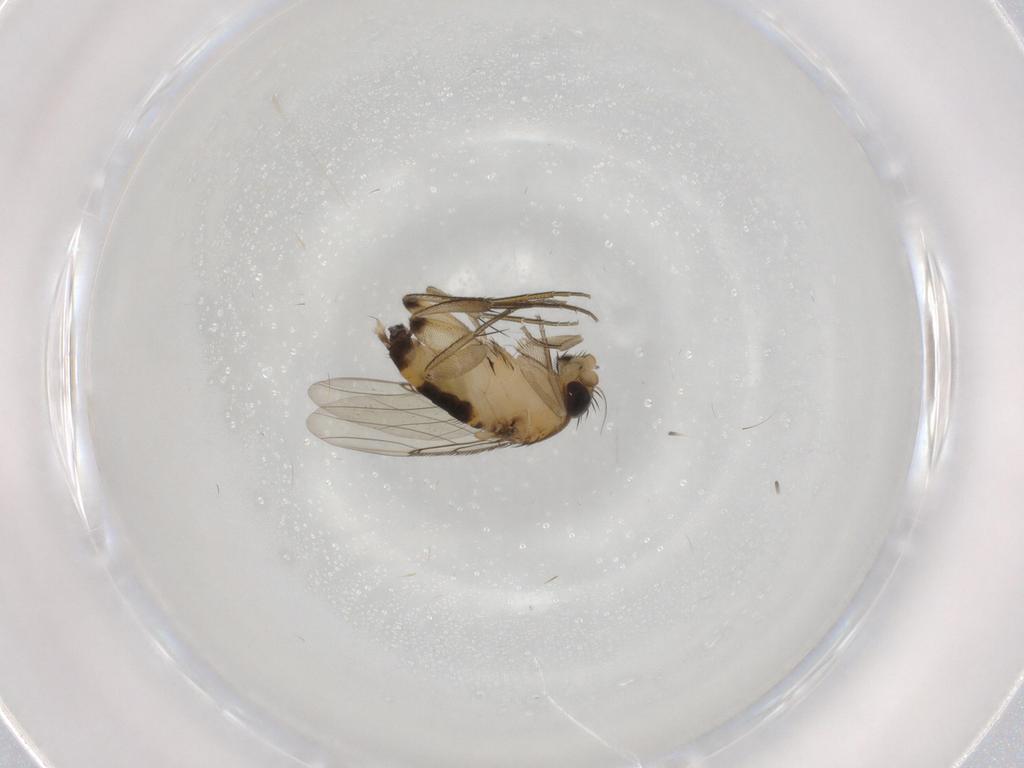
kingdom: Animalia
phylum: Arthropoda
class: Insecta
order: Diptera
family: Phoridae
